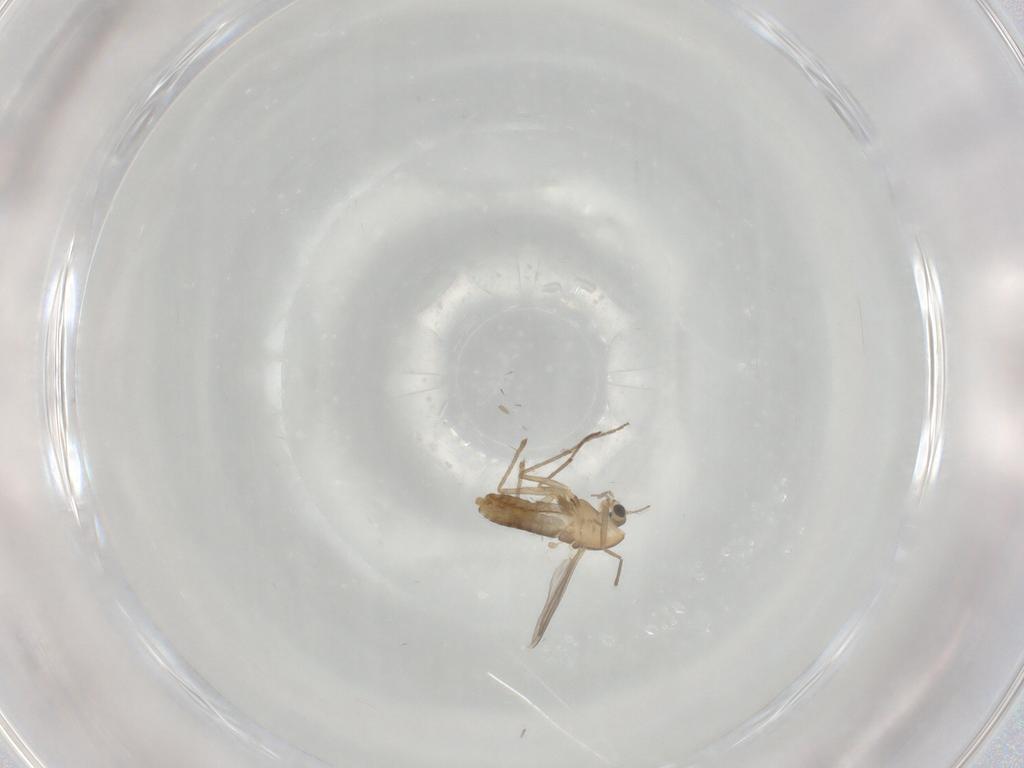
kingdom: Animalia
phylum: Arthropoda
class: Insecta
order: Diptera
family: Chironomidae
